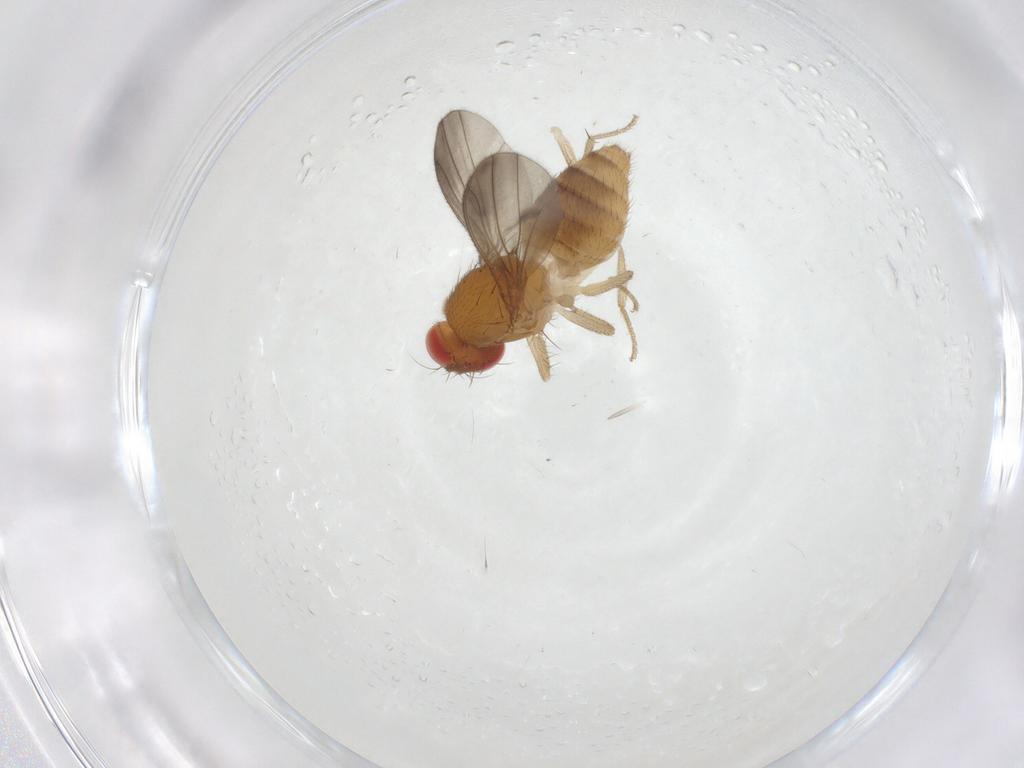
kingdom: Animalia
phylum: Arthropoda
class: Insecta
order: Diptera
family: Drosophilidae
